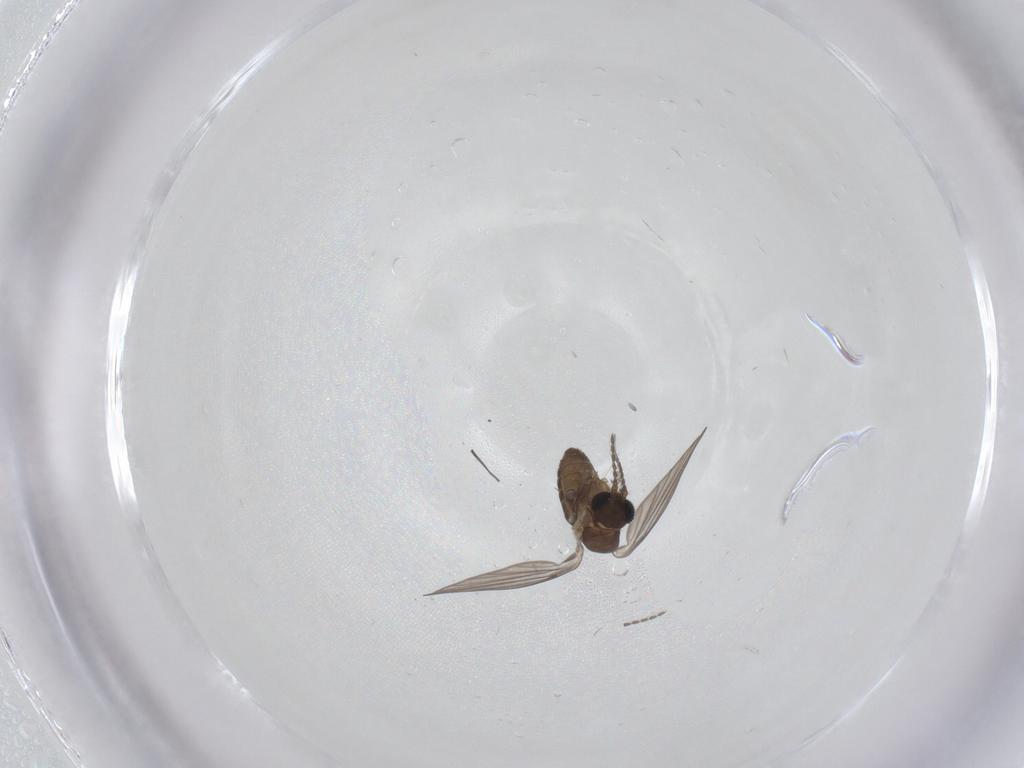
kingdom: Animalia
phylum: Arthropoda
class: Insecta
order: Diptera
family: Psychodidae
